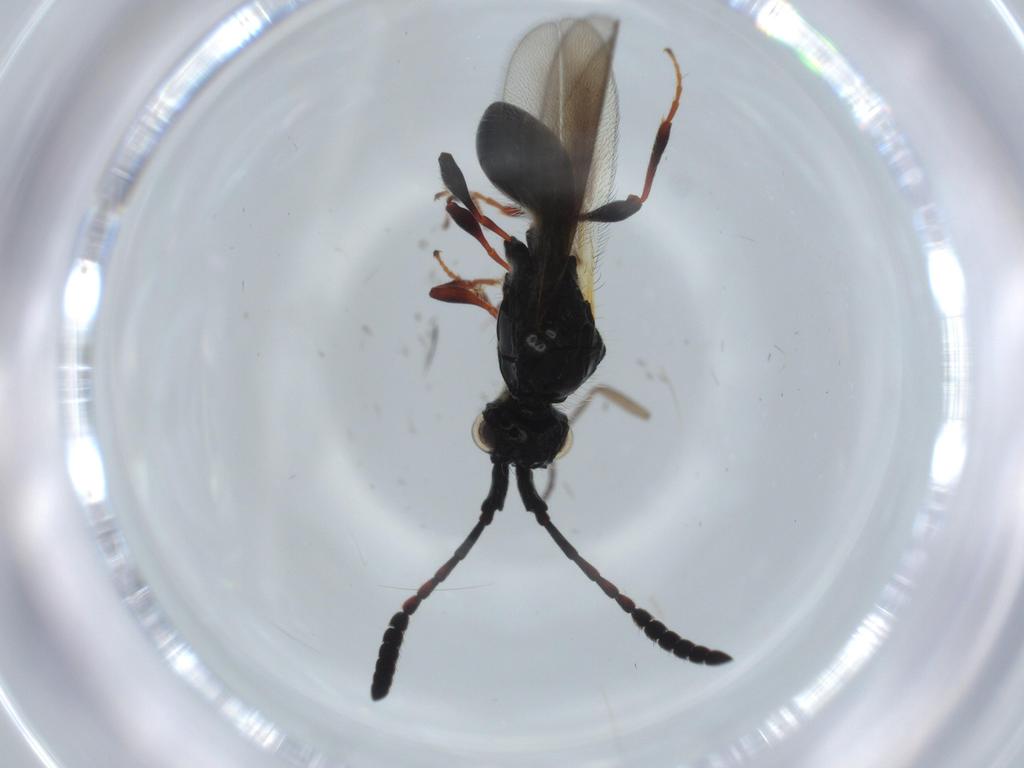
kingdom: Animalia
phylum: Arthropoda
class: Insecta
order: Hymenoptera
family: Diapriidae
